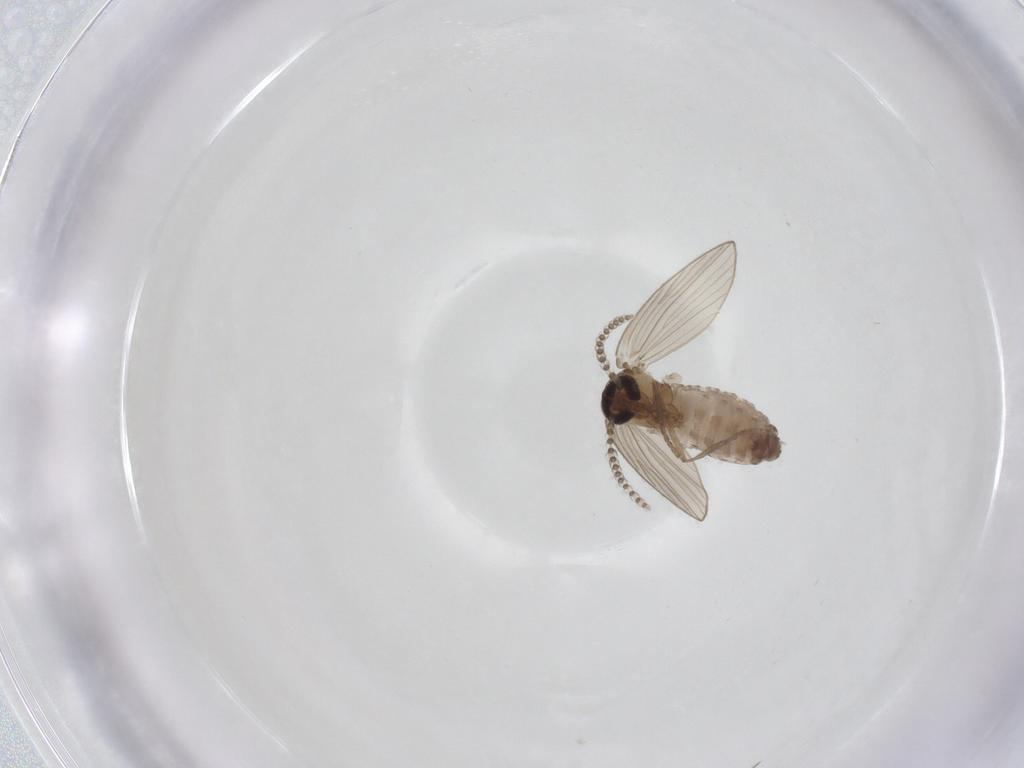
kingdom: Animalia
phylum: Arthropoda
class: Insecta
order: Diptera
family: Psychodidae
